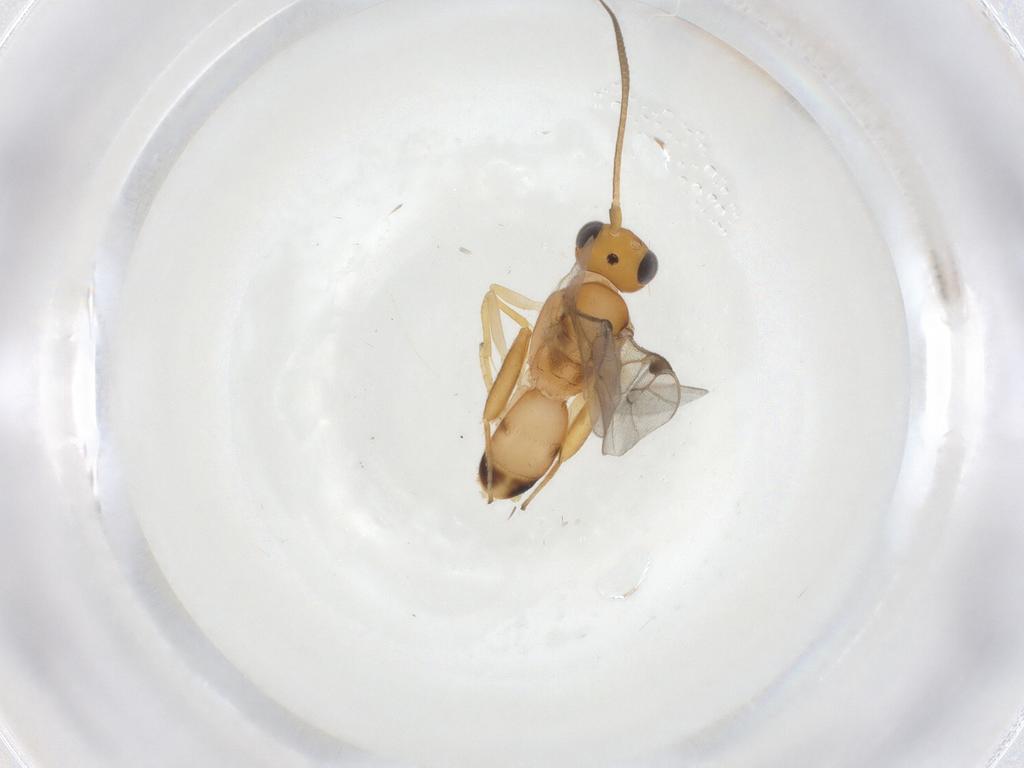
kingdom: Animalia
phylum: Arthropoda
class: Insecta
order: Hymenoptera
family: Braconidae
